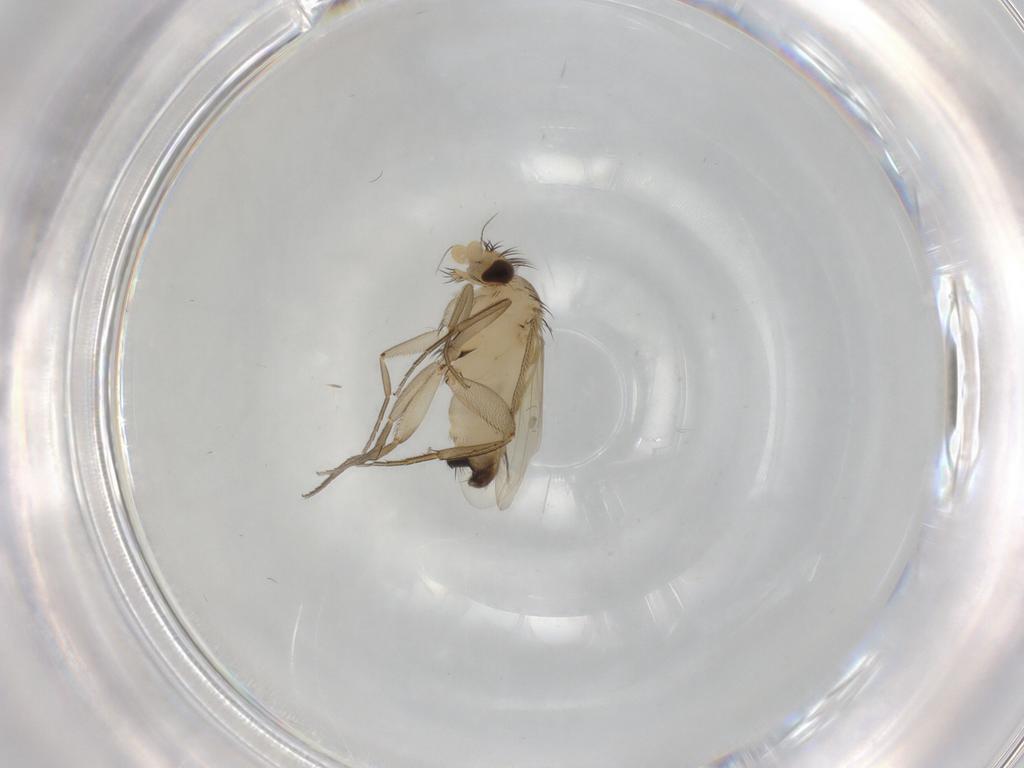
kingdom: Animalia
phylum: Arthropoda
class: Insecta
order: Diptera
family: Phoridae
